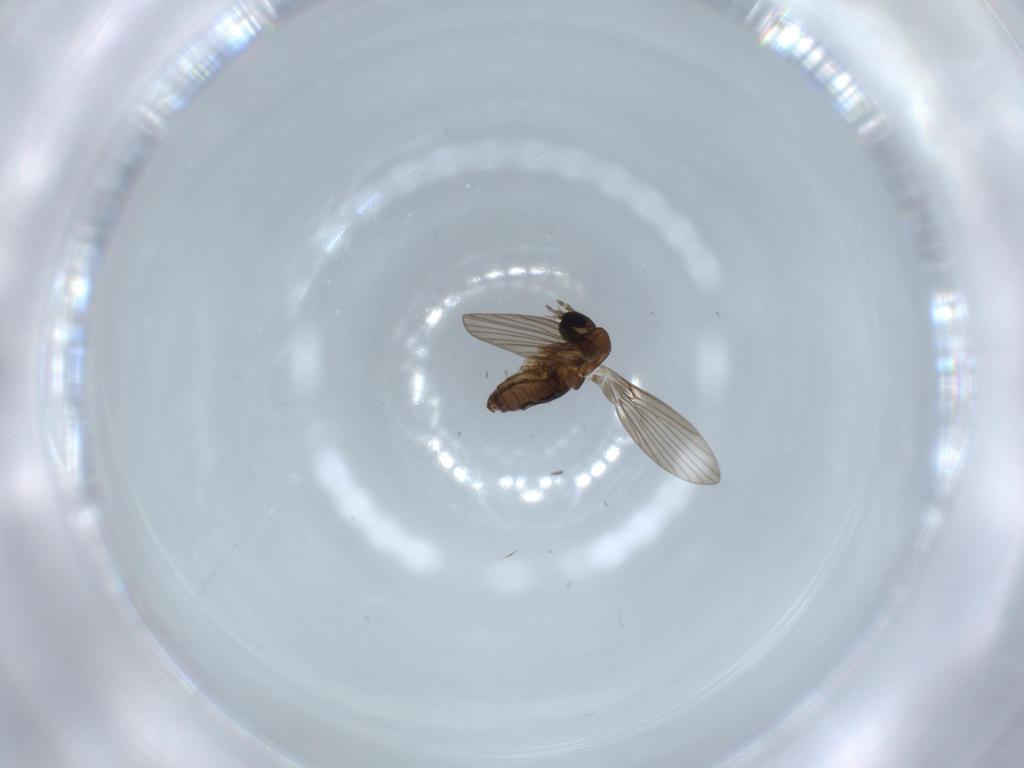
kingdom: Animalia
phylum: Arthropoda
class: Insecta
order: Diptera
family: Psychodidae
